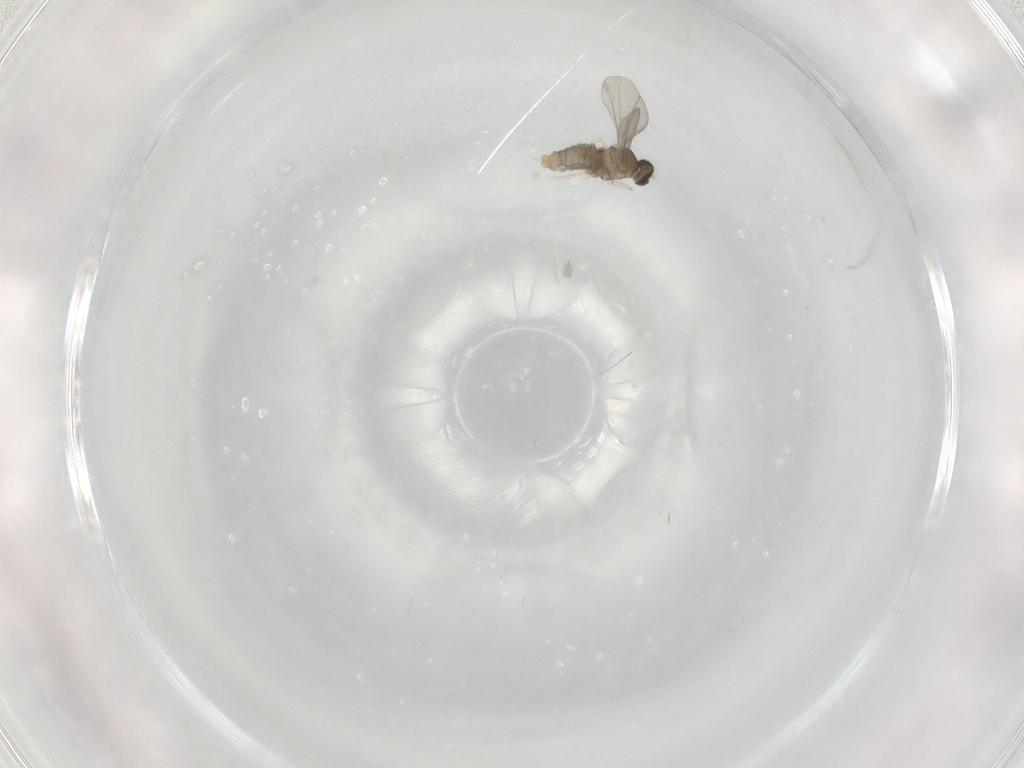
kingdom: Animalia
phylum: Arthropoda
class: Insecta
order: Diptera
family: Cecidomyiidae
